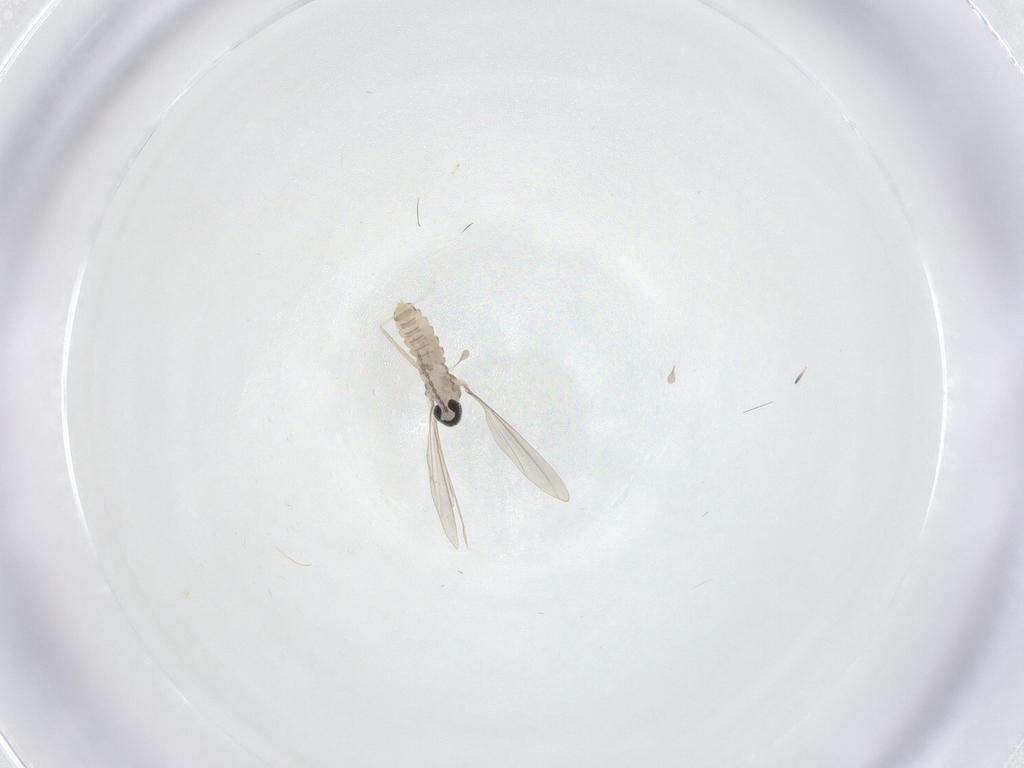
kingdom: Animalia
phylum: Arthropoda
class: Insecta
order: Diptera
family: Cecidomyiidae
